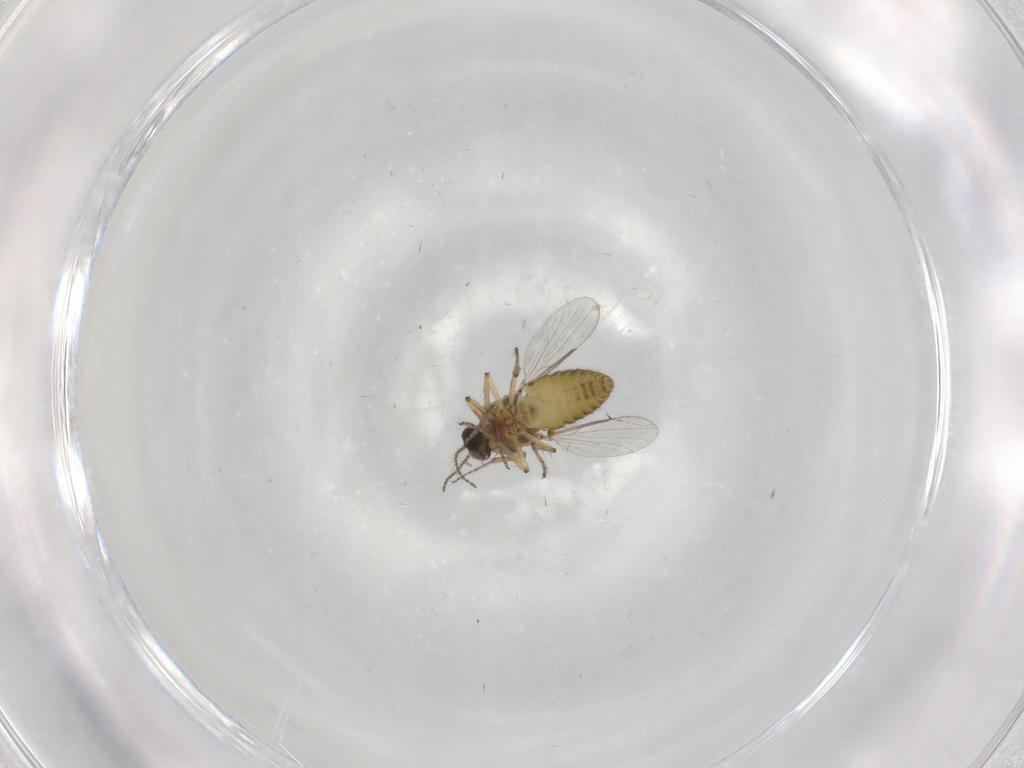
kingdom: Animalia
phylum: Arthropoda
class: Insecta
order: Diptera
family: Ceratopogonidae
